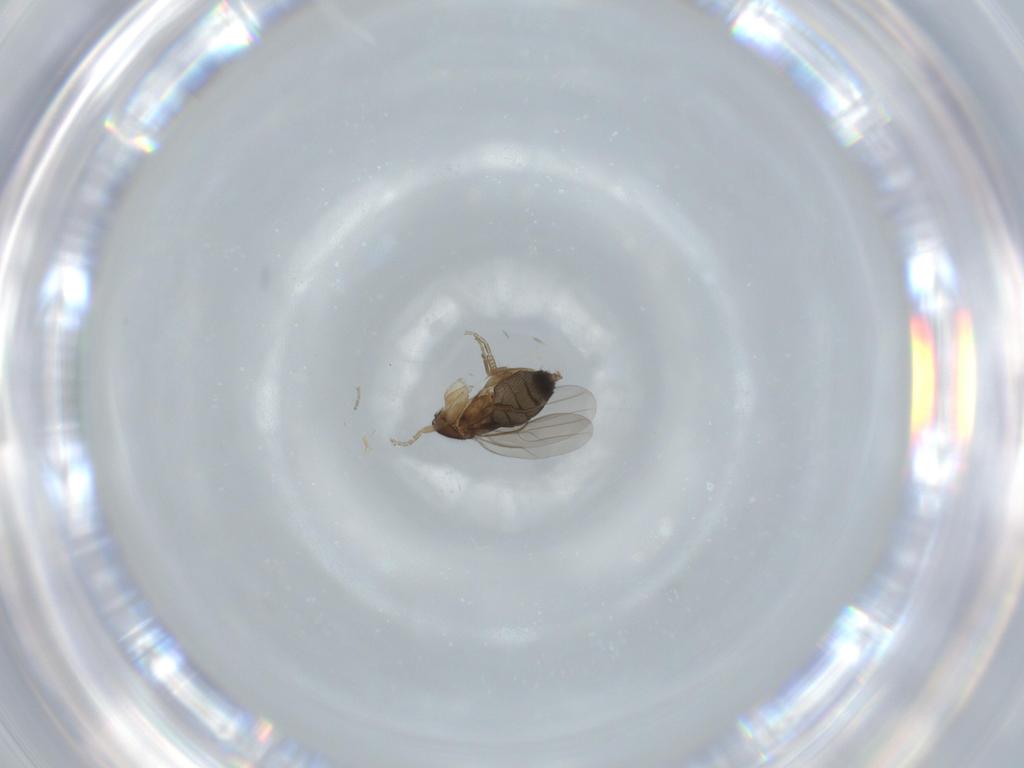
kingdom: Animalia
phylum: Arthropoda
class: Insecta
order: Diptera
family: Phoridae
